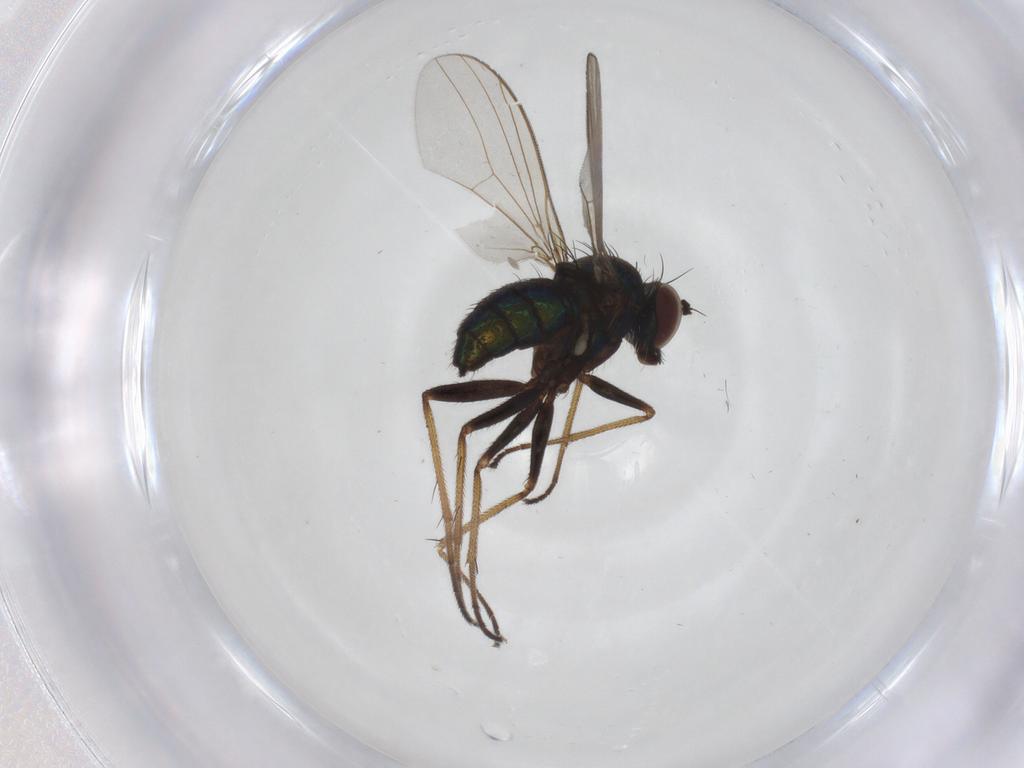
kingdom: Animalia
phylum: Arthropoda
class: Insecta
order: Diptera
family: Dolichopodidae
